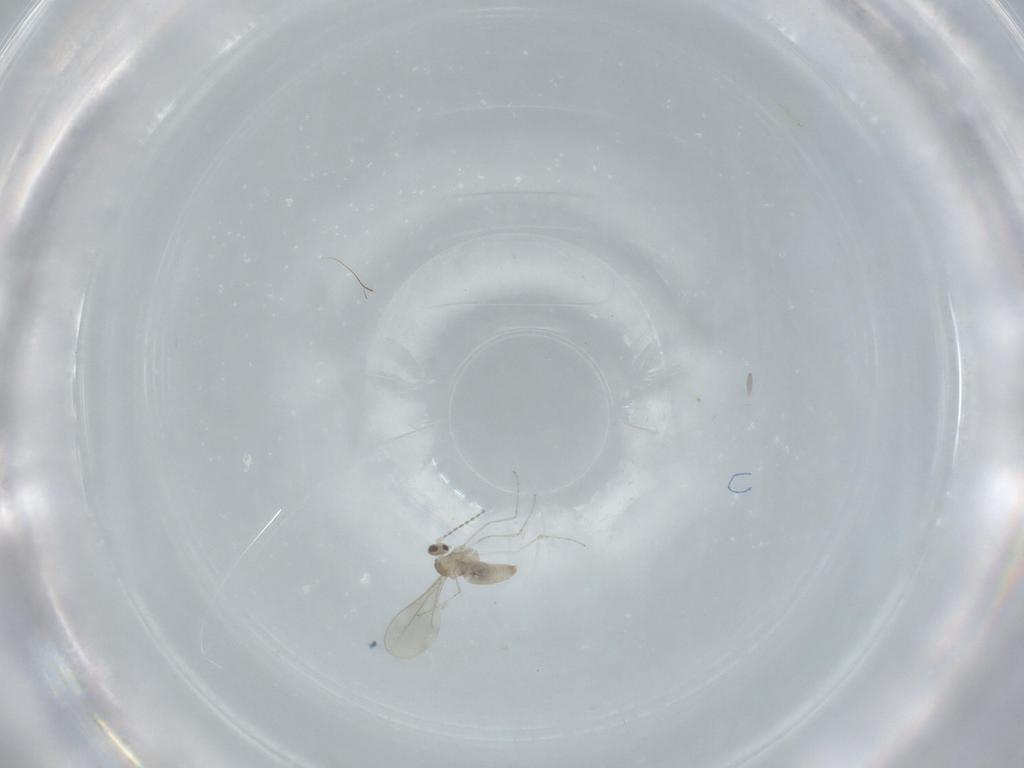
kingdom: Animalia
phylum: Arthropoda
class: Insecta
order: Diptera
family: Cecidomyiidae
